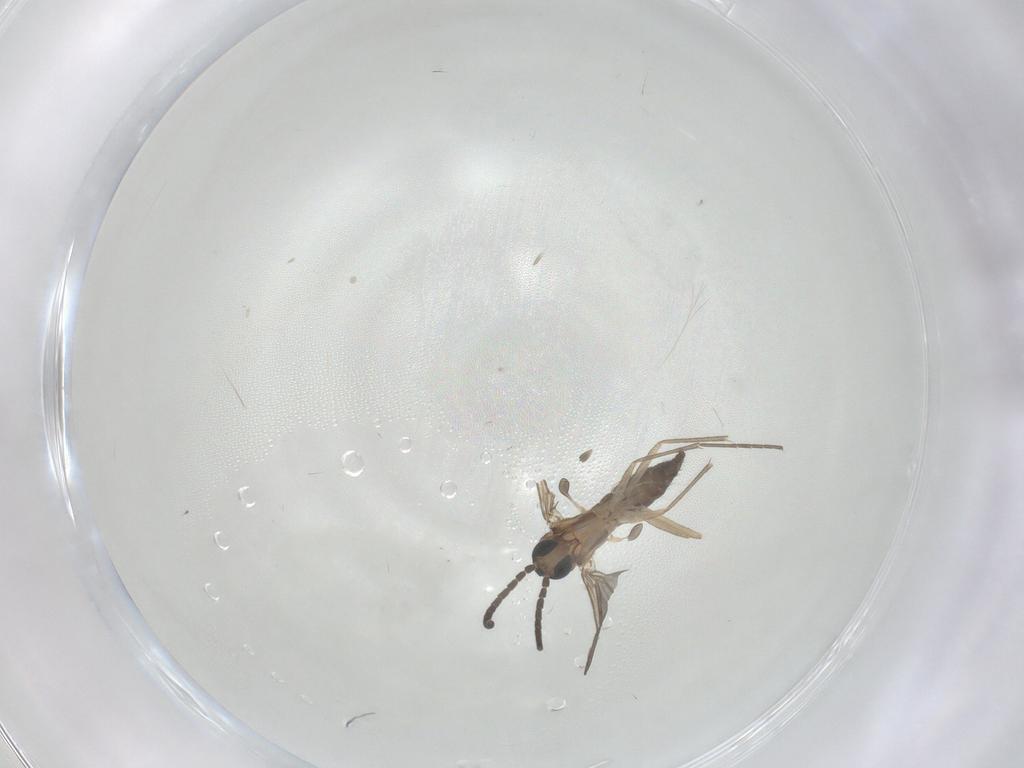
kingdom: Animalia
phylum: Arthropoda
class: Insecta
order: Diptera
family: Sciaridae
